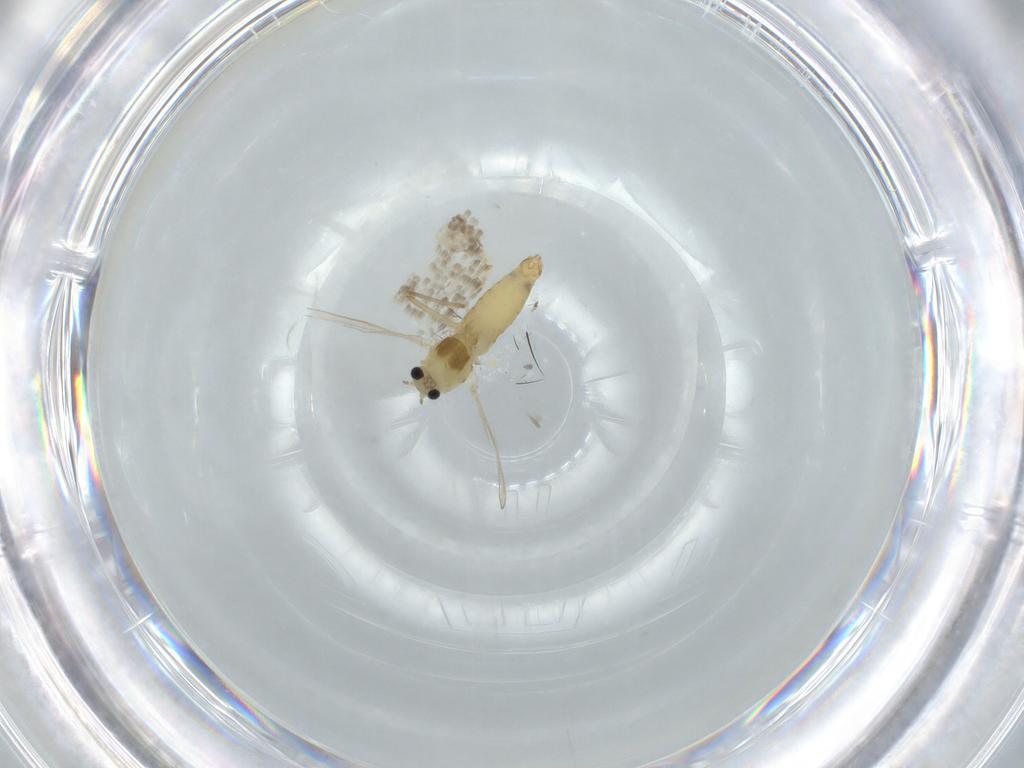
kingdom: Animalia
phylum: Arthropoda
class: Insecta
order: Diptera
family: Chironomidae
